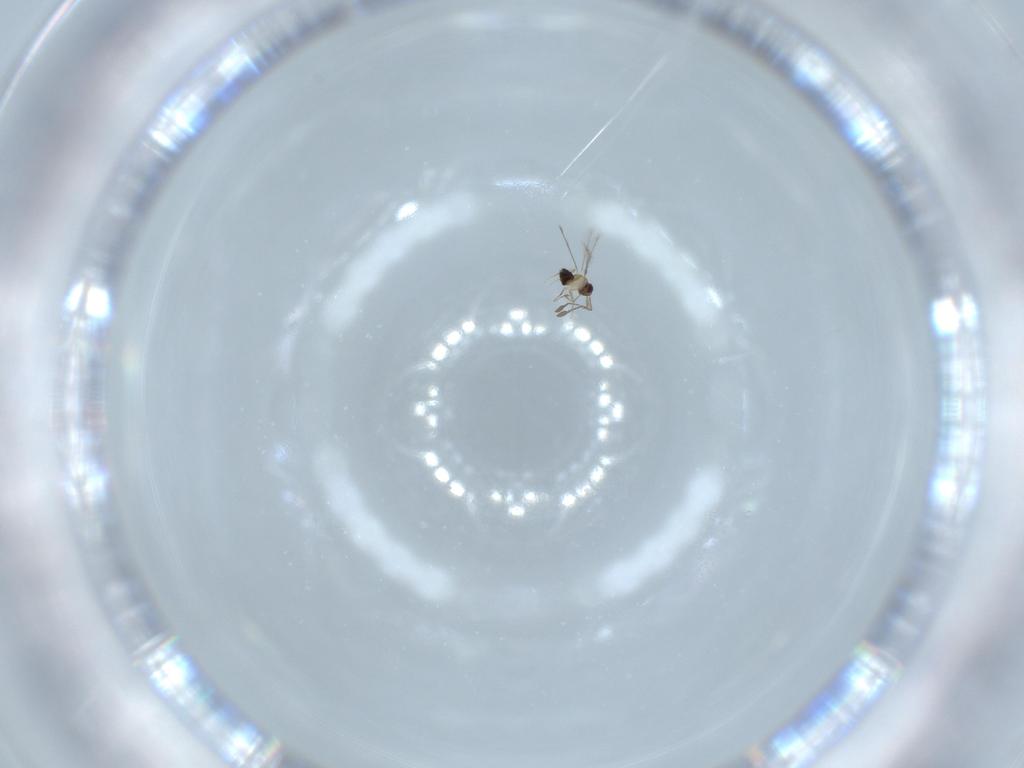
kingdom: Animalia
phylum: Arthropoda
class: Insecta
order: Hymenoptera
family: Mymaridae
